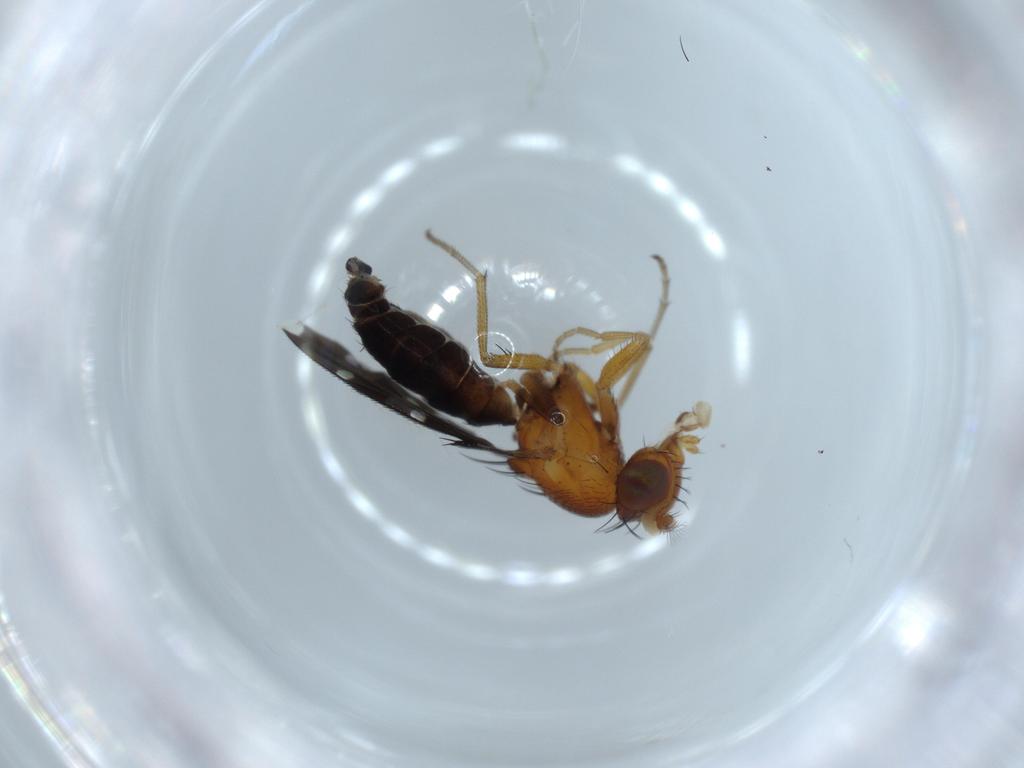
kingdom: Animalia
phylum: Arthropoda
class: Insecta
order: Diptera
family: Ephydridae
